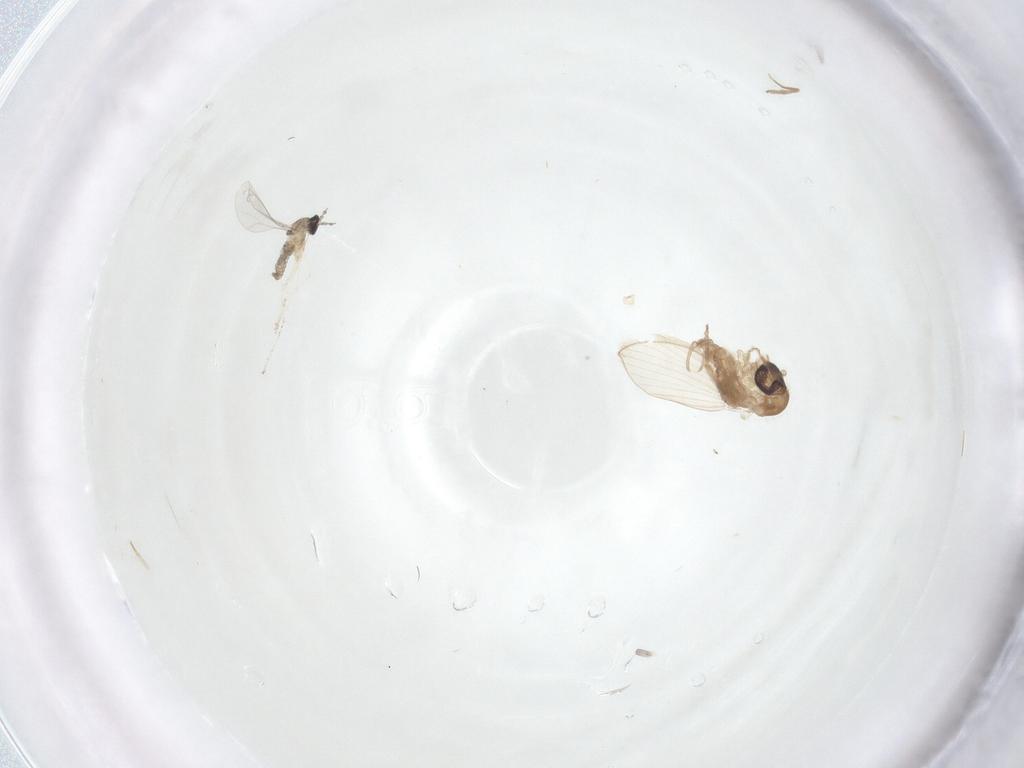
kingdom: Animalia
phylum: Arthropoda
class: Insecta
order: Diptera
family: Cecidomyiidae
